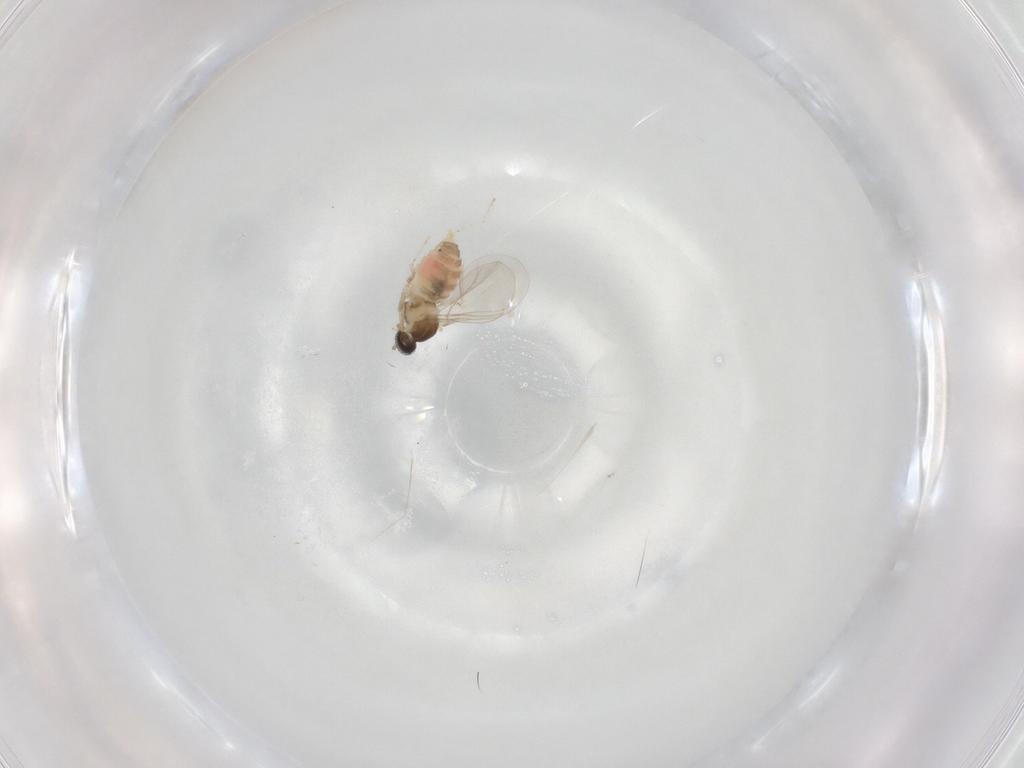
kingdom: Animalia
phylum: Arthropoda
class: Insecta
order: Diptera
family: Cecidomyiidae
